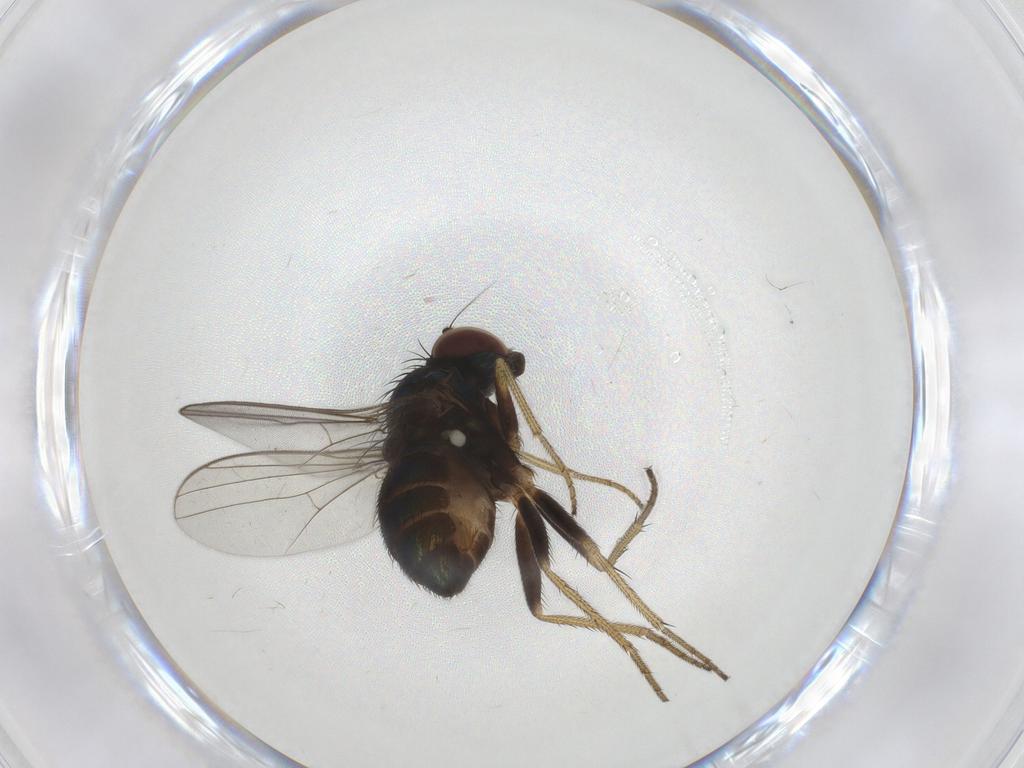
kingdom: Animalia
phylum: Arthropoda
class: Insecta
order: Diptera
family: Dolichopodidae
